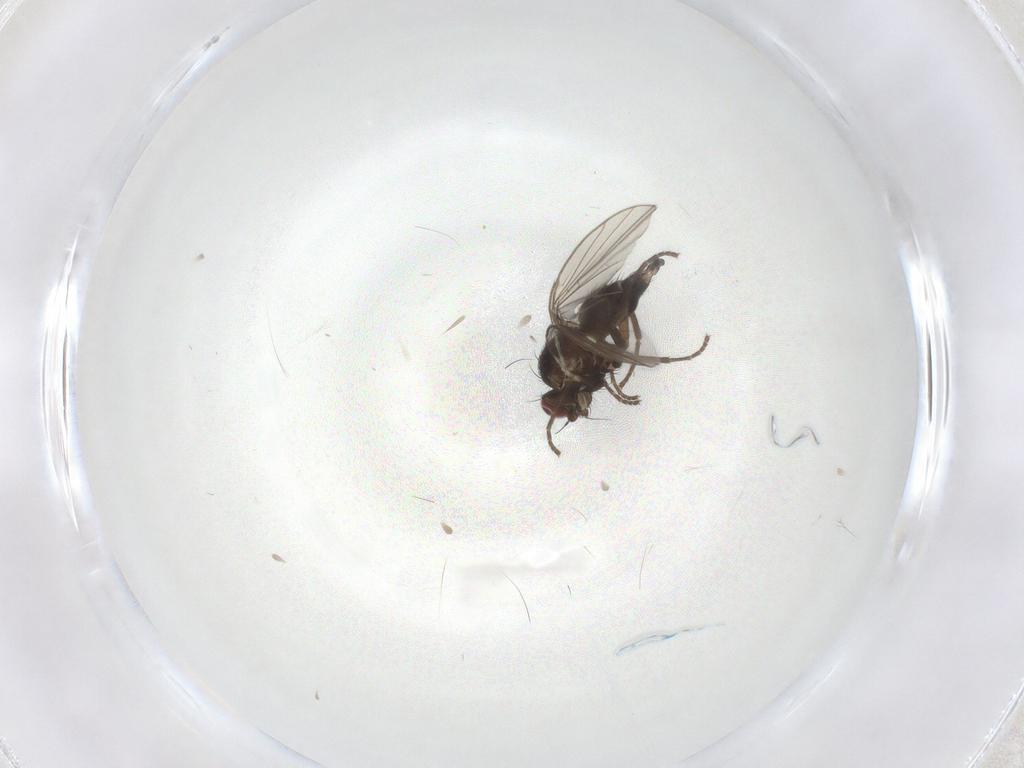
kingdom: Animalia
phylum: Arthropoda
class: Insecta
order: Diptera
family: Agromyzidae
